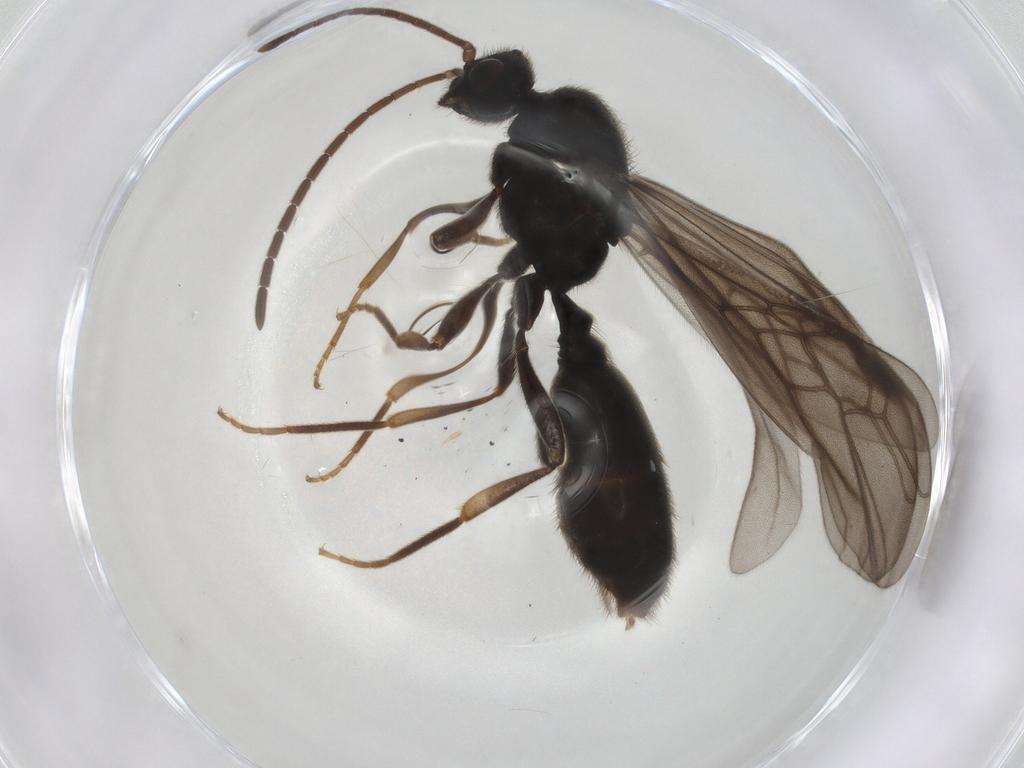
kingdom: Animalia
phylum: Arthropoda
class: Insecta
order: Hymenoptera
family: Formicidae
